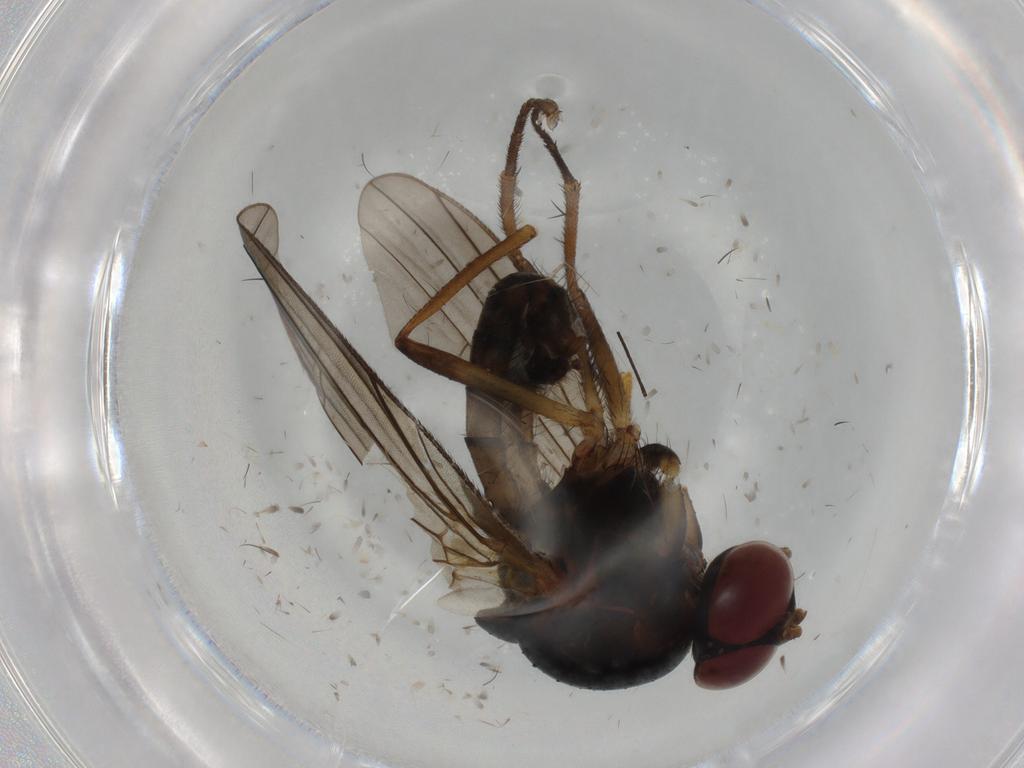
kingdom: Animalia
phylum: Arthropoda
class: Insecta
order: Diptera
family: Anthomyiidae
